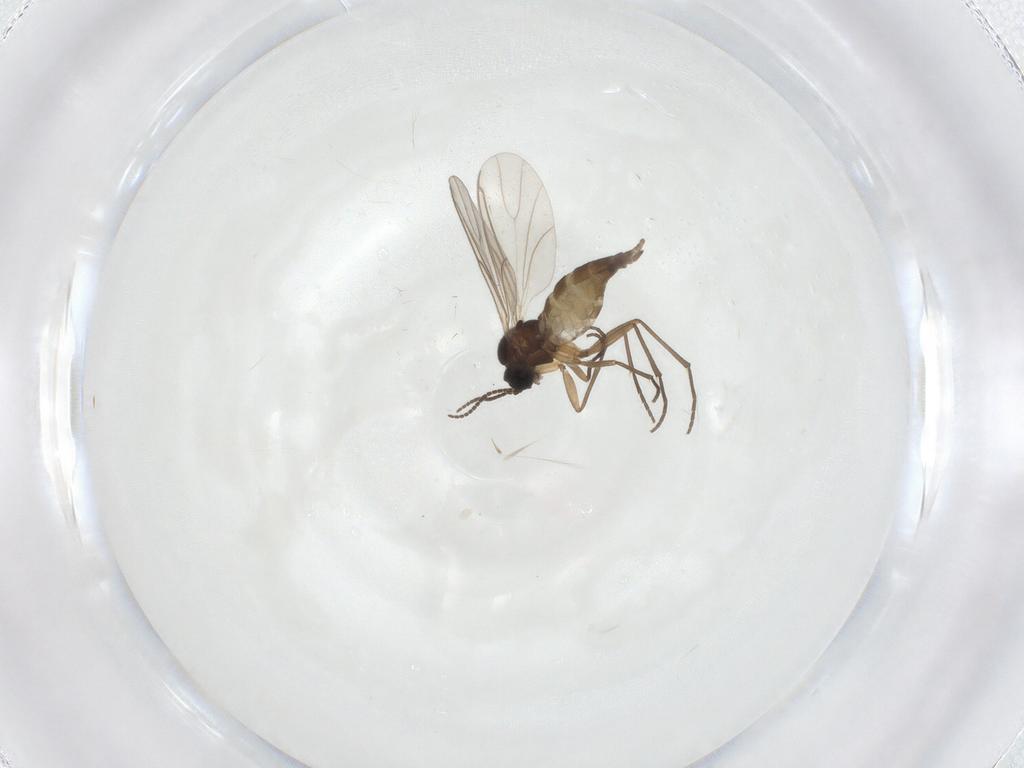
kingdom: Animalia
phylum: Arthropoda
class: Insecta
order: Diptera
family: Sciaridae
